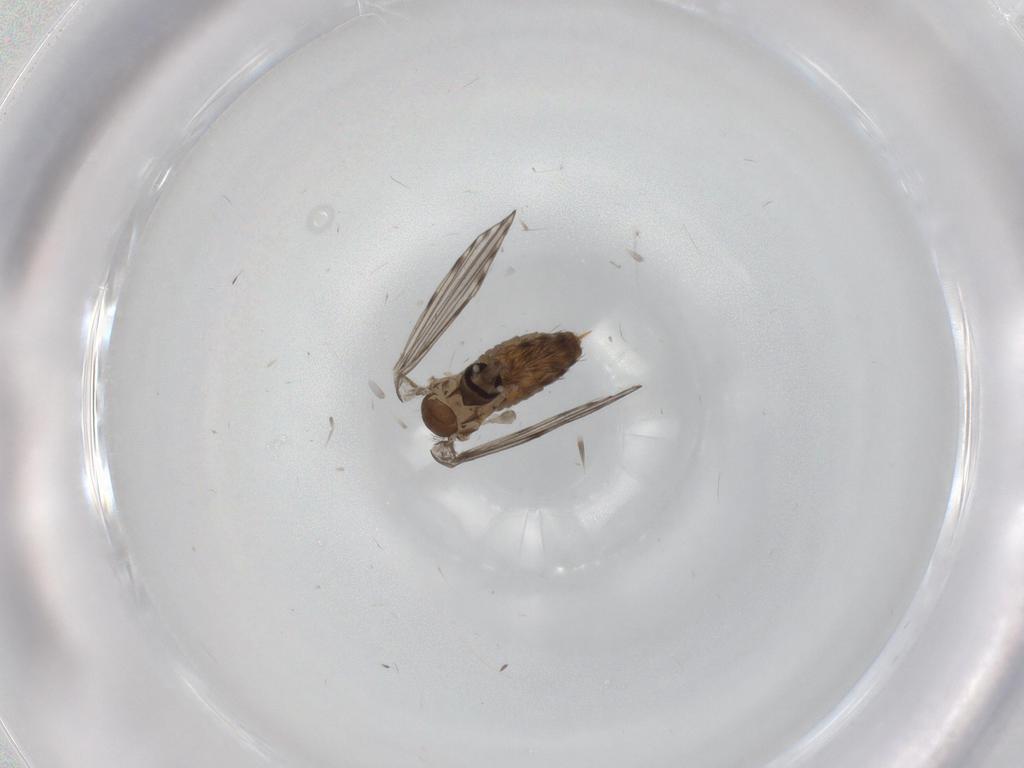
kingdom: Animalia
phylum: Arthropoda
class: Insecta
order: Diptera
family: Psychodidae
